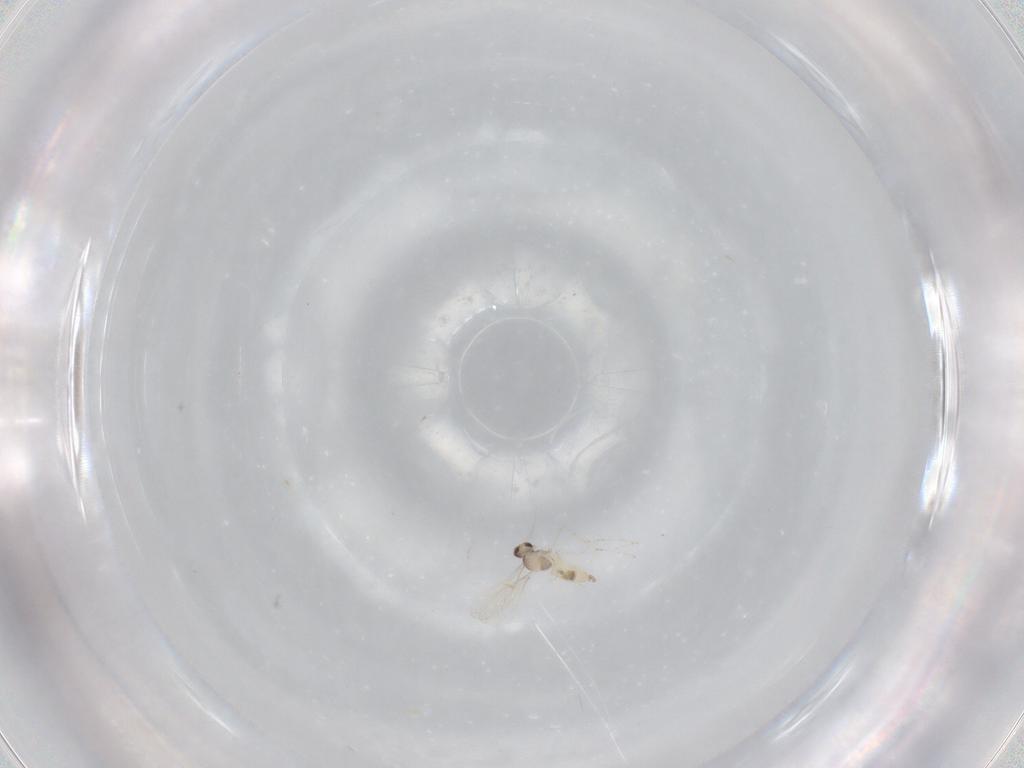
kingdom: Animalia
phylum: Arthropoda
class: Insecta
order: Diptera
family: Cecidomyiidae
